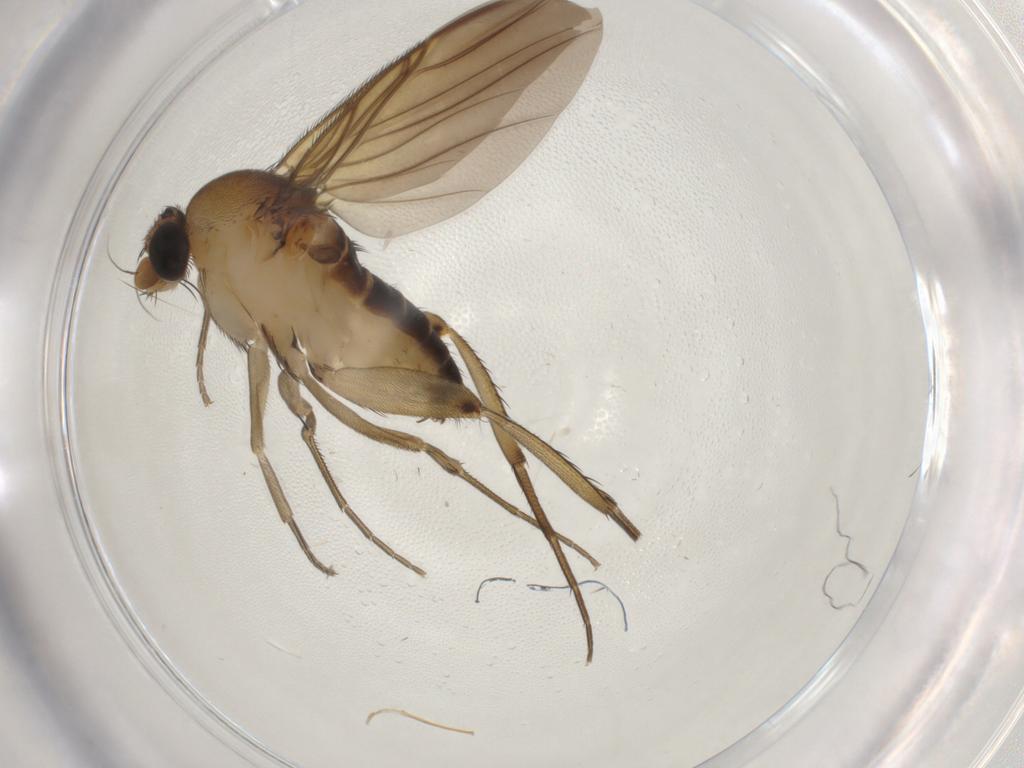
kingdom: Animalia
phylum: Arthropoda
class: Insecta
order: Diptera
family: Phoridae
